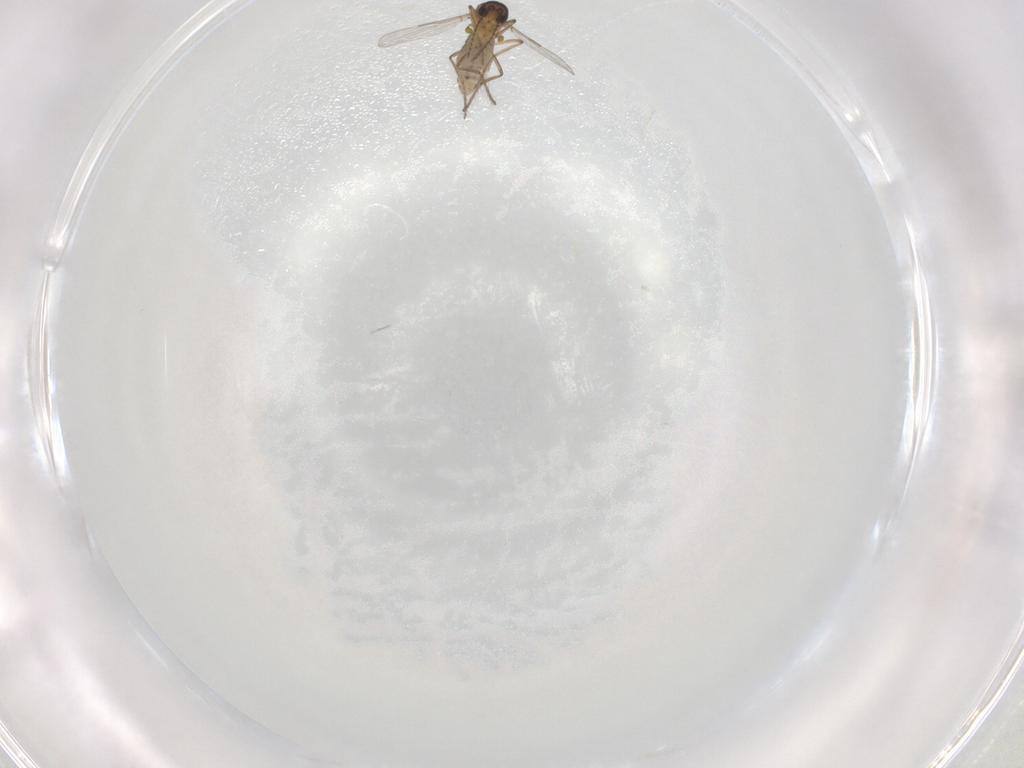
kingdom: Animalia
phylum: Arthropoda
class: Insecta
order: Diptera
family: Ceratopogonidae
